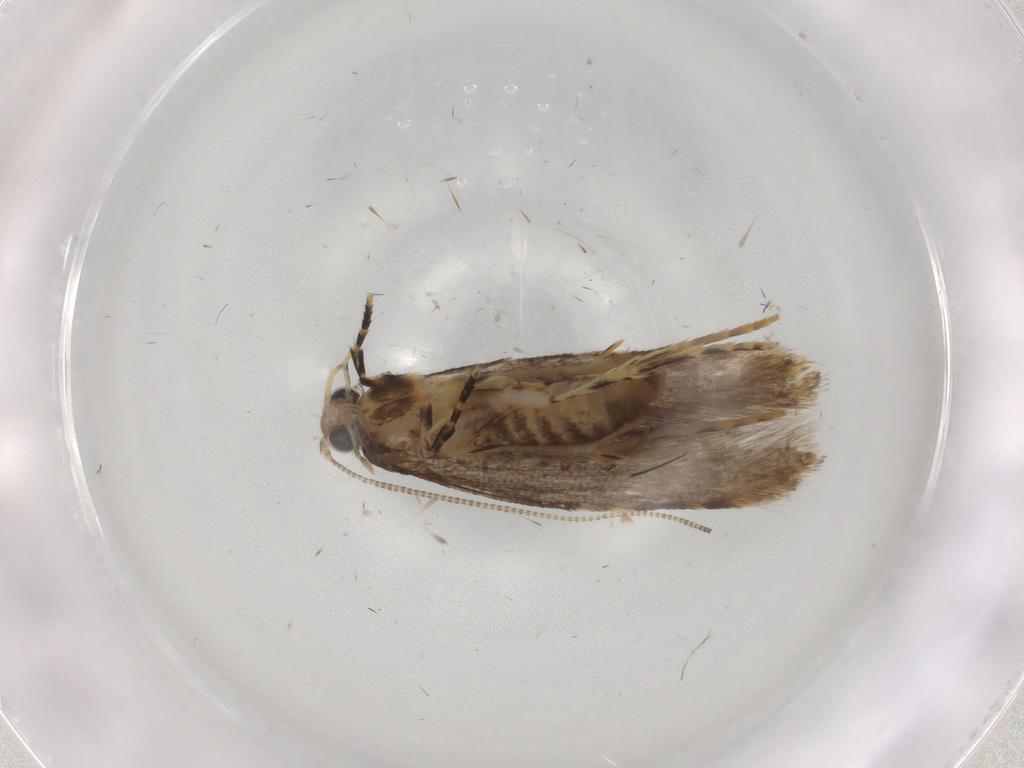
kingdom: Animalia
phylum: Arthropoda
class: Insecta
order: Lepidoptera
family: Tineidae
